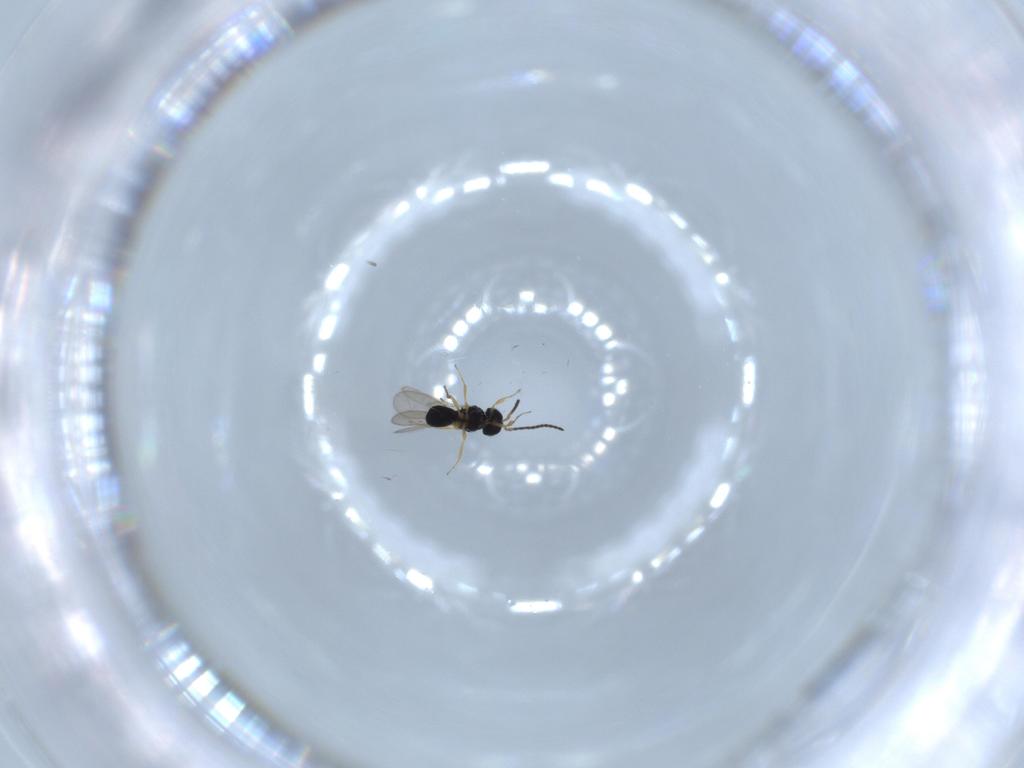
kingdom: Animalia
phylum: Arthropoda
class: Insecta
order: Hymenoptera
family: Scelionidae
